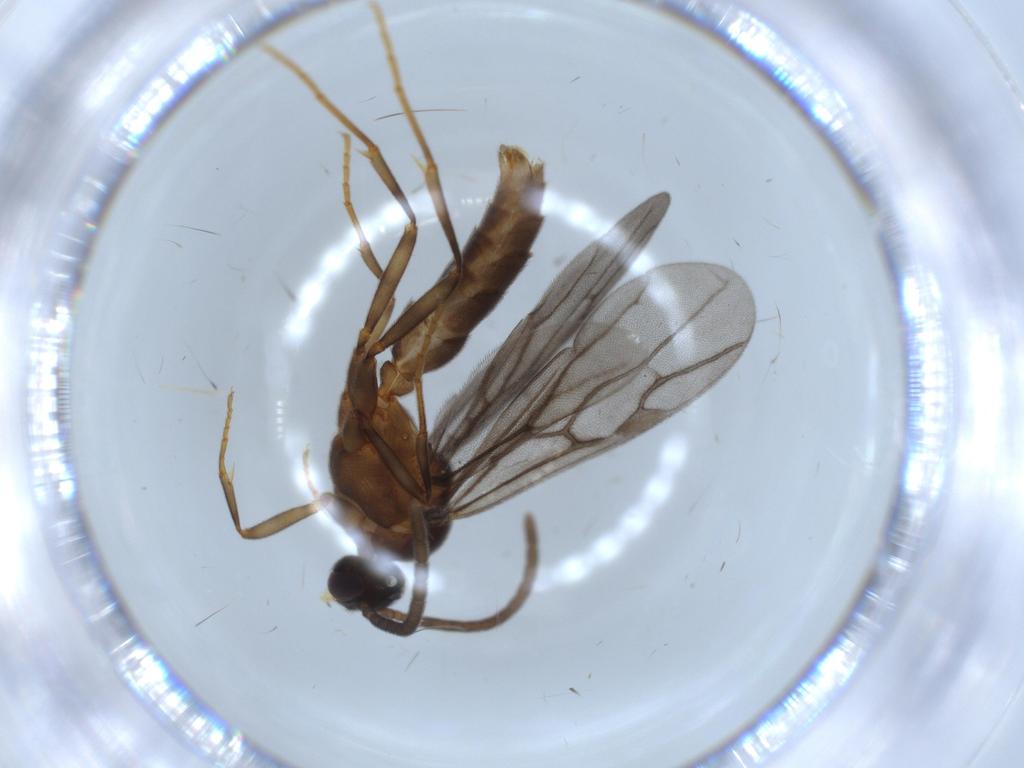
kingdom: Animalia
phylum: Arthropoda
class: Insecta
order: Hymenoptera
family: Formicidae
